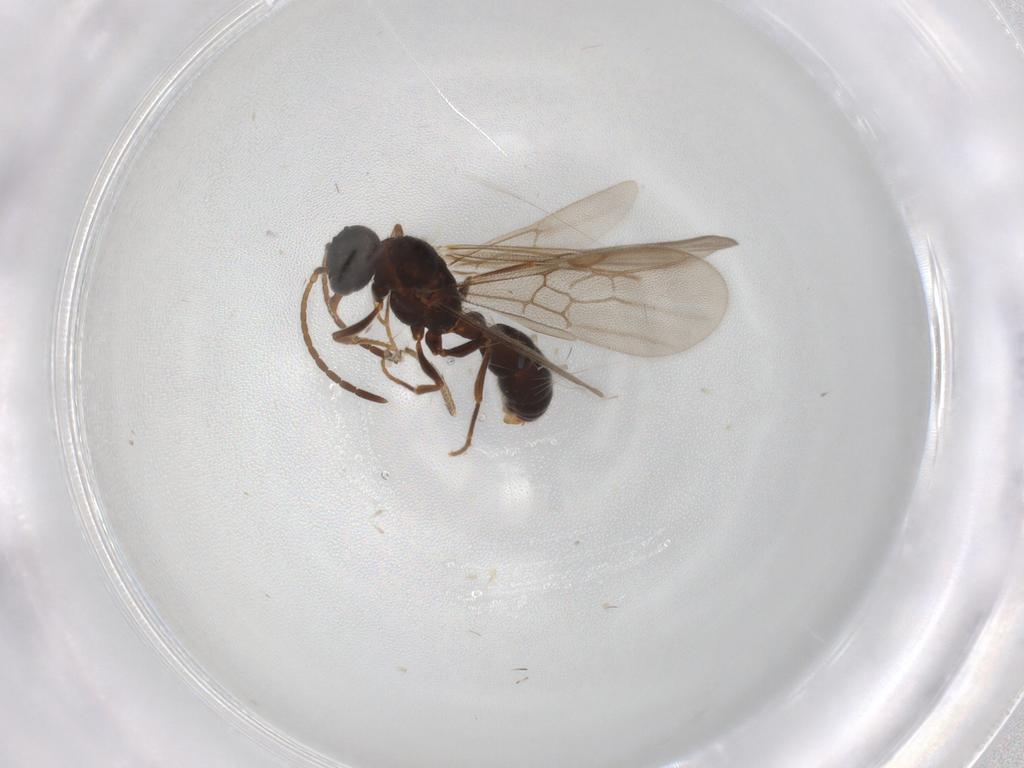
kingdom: Animalia
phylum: Arthropoda
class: Insecta
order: Hymenoptera
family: Formicidae
